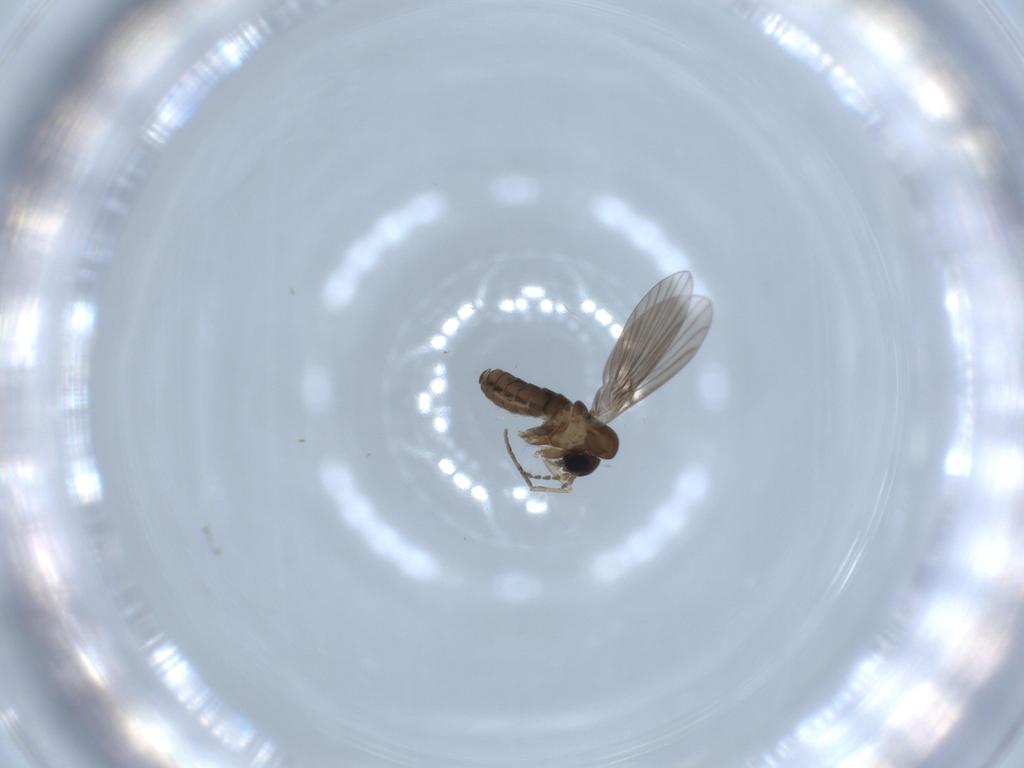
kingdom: Animalia
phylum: Arthropoda
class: Insecta
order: Diptera
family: Psychodidae
